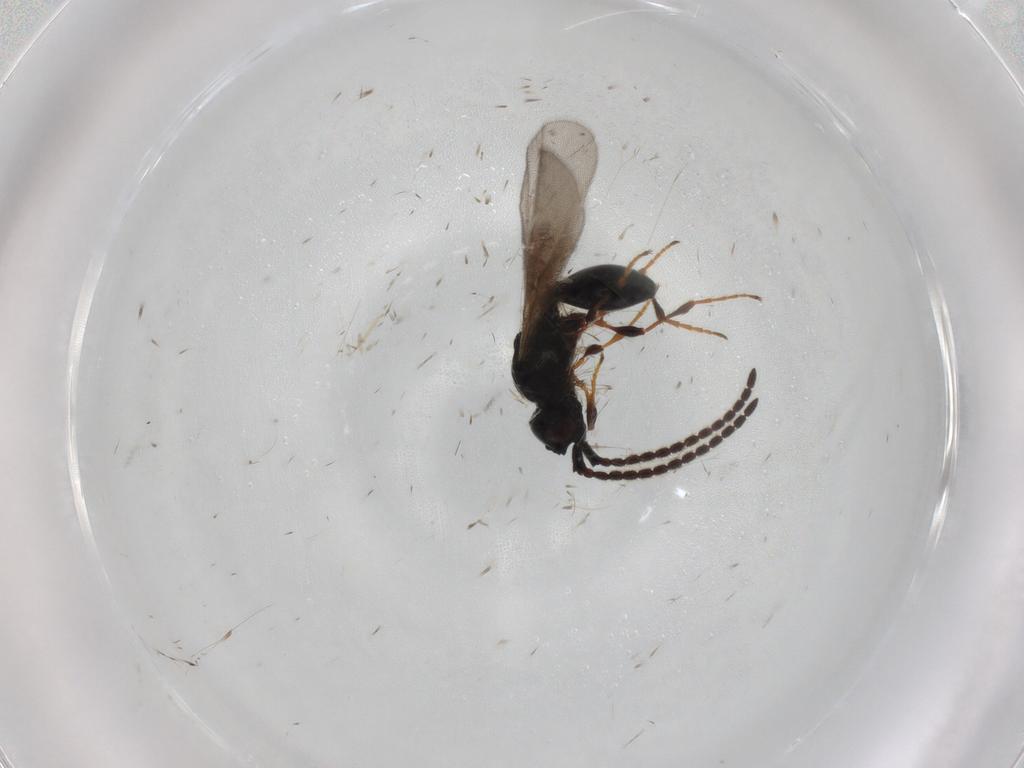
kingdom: Animalia
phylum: Arthropoda
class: Insecta
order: Hymenoptera
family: Diapriidae
